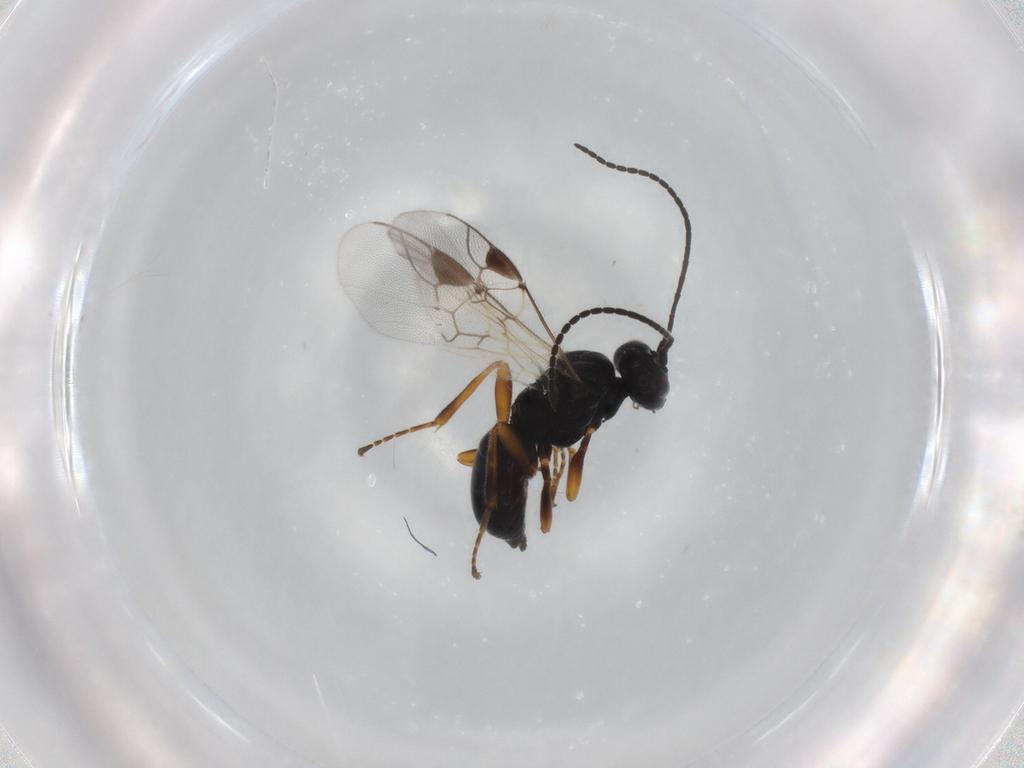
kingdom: Animalia
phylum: Arthropoda
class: Insecta
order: Hymenoptera
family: Braconidae
